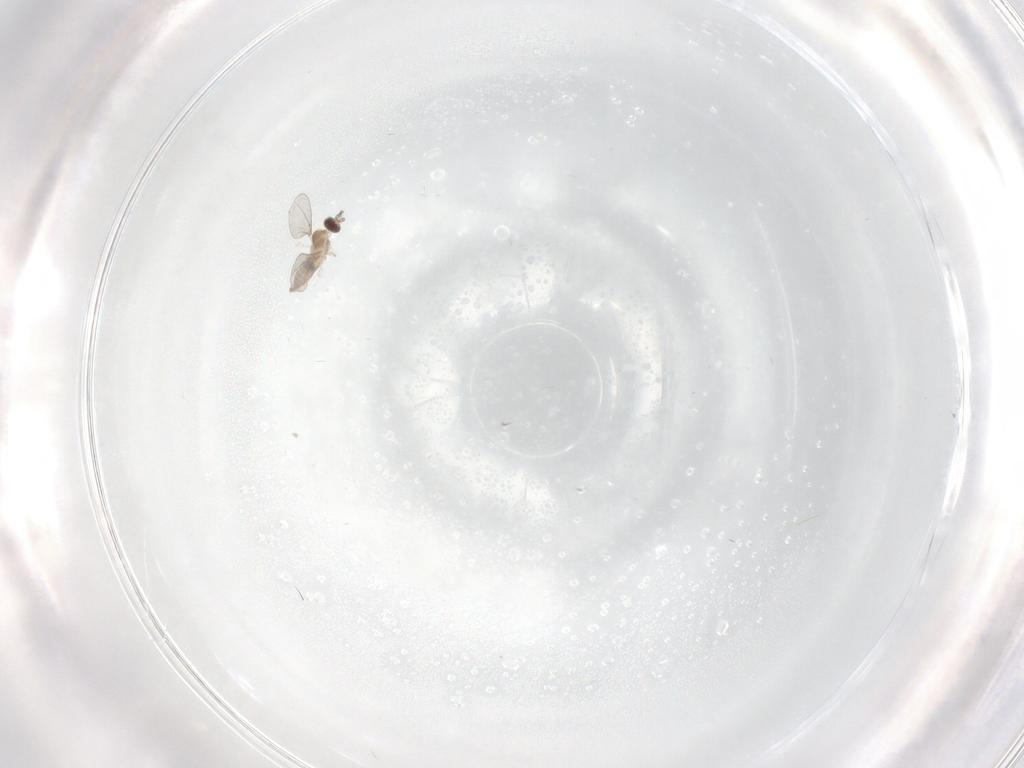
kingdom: Animalia
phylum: Arthropoda
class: Insecta
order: Diptera
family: Cecidomyiidae
